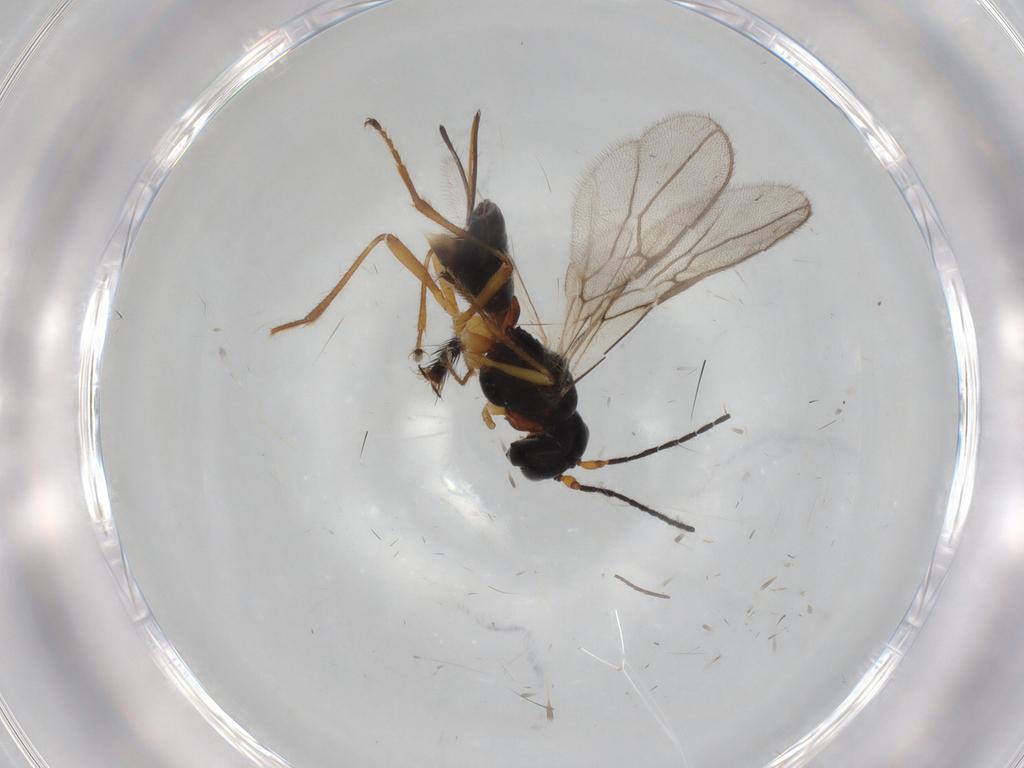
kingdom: Animalia
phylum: Arthropoda
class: Insecta
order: Hymenoptera
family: Braconidae
